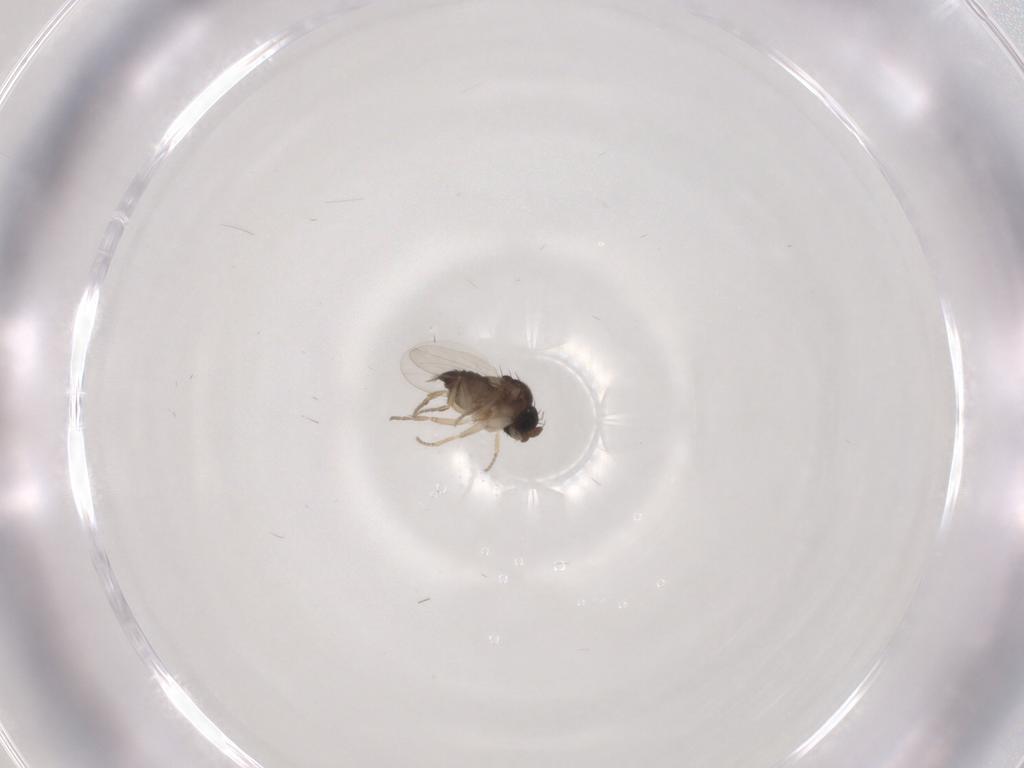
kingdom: Animalia
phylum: Arthropoda
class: Insecta
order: Diptera
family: Phoridae
